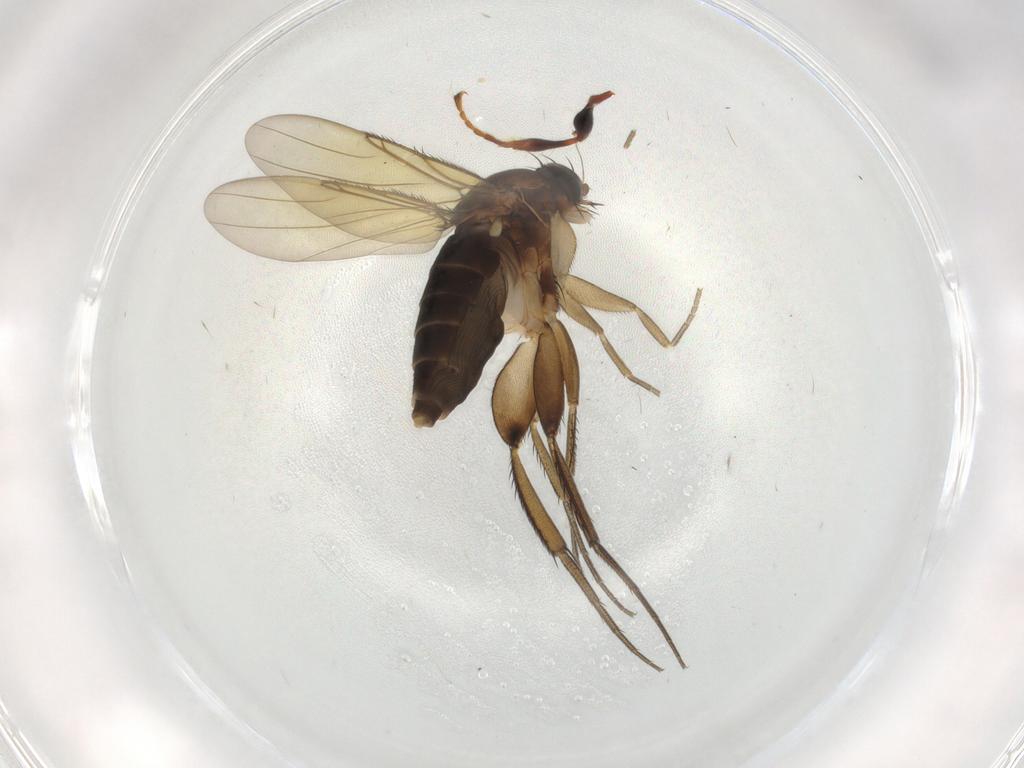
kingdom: Animalia
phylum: Arthropoda
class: Insecta
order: Diptera
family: Phoridae
